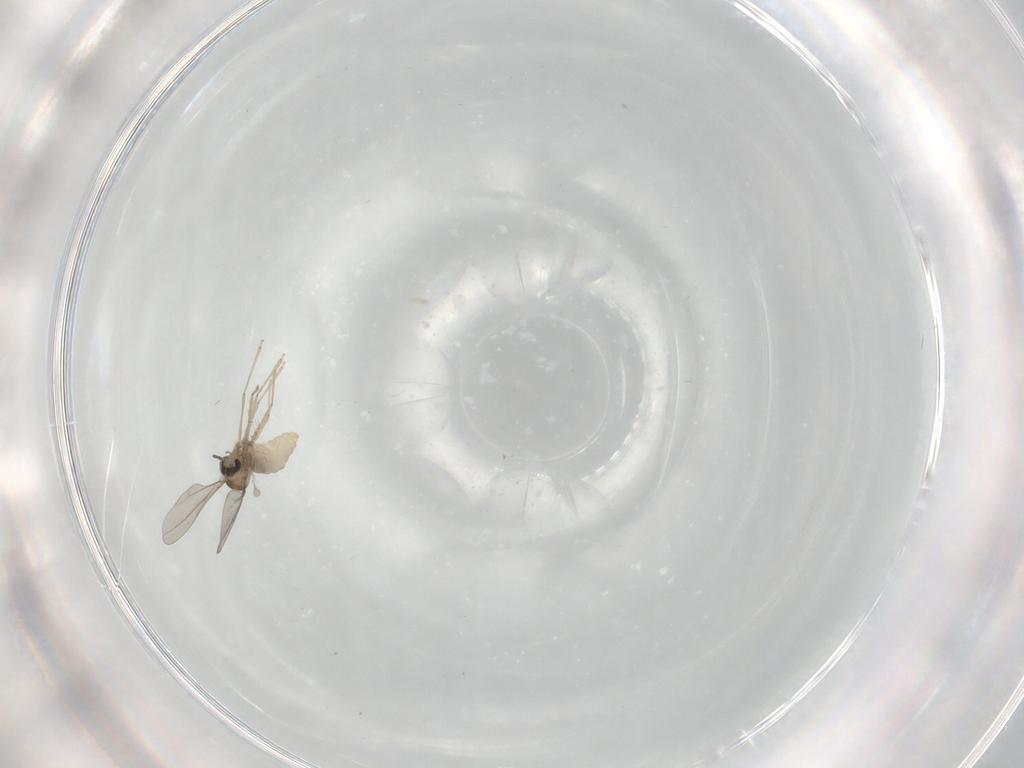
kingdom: Animalia
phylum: Arthropoda
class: Insecta
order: Diptera
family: Cecidomyiidae
